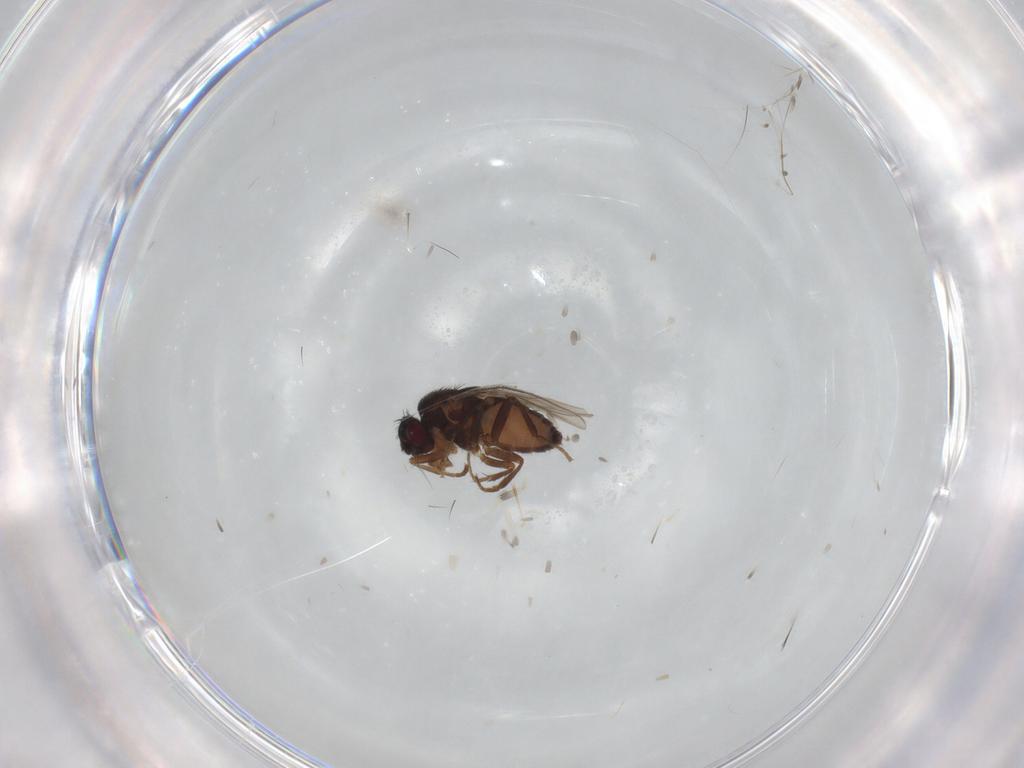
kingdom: Animalia
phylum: Arthropoda
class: Insecta
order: Diptera
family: Sphaeroceridae
